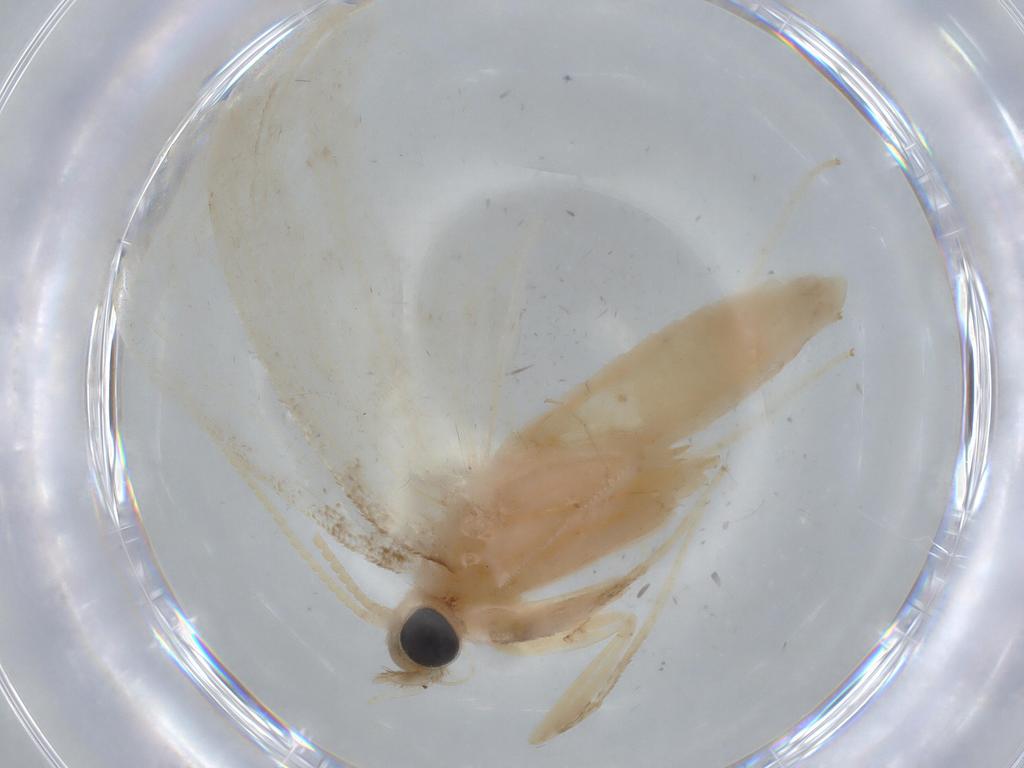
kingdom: Animalia
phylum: Arthropoda
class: Insecta
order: Lepidoptera
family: Crambidae
